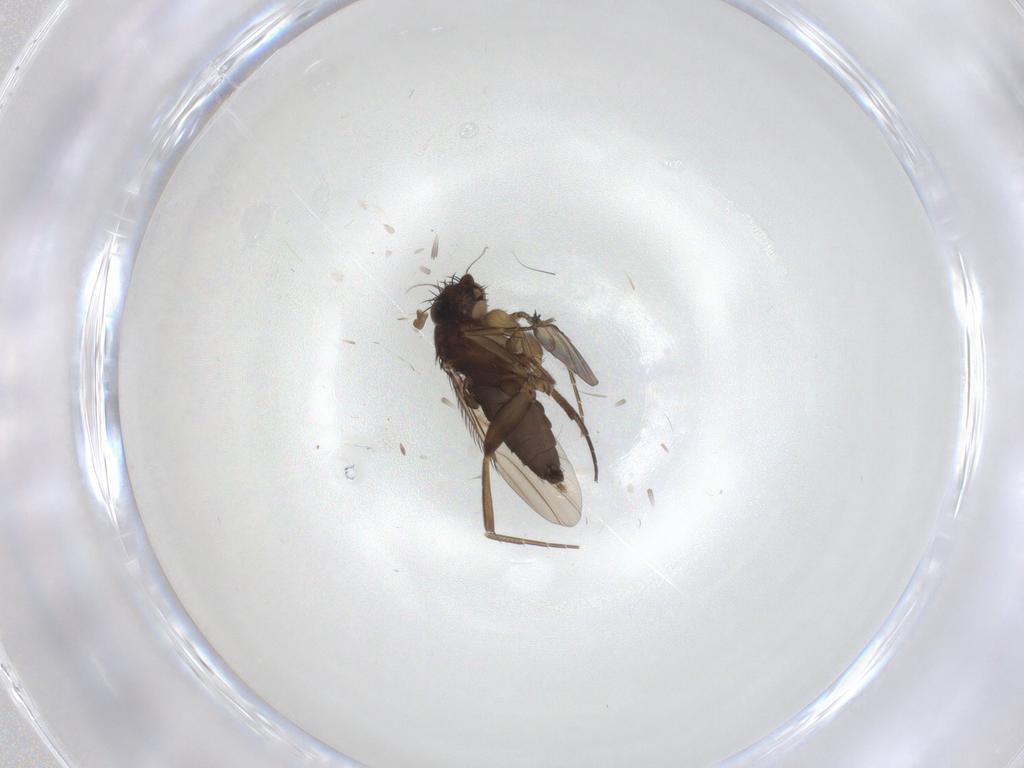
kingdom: Animalia
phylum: Arthropoda
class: Insecta
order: Diptera
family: Phoridae
